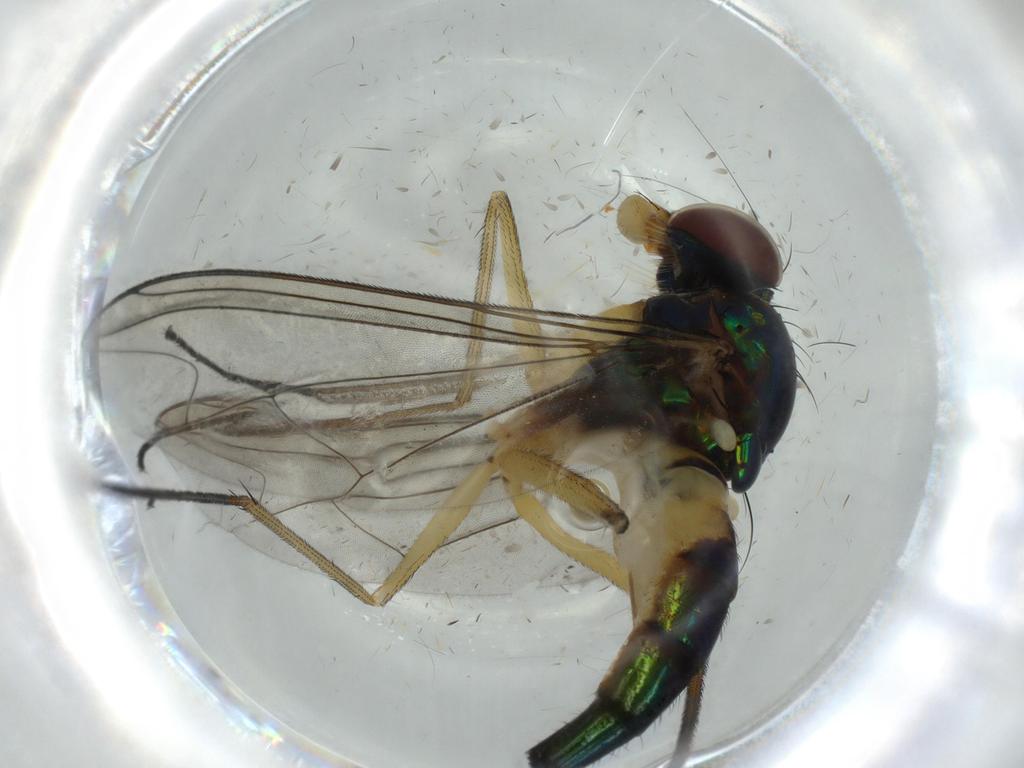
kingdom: Animalia
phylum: Arthropoda
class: Insecta
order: Diptera
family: Dolichopodidae
